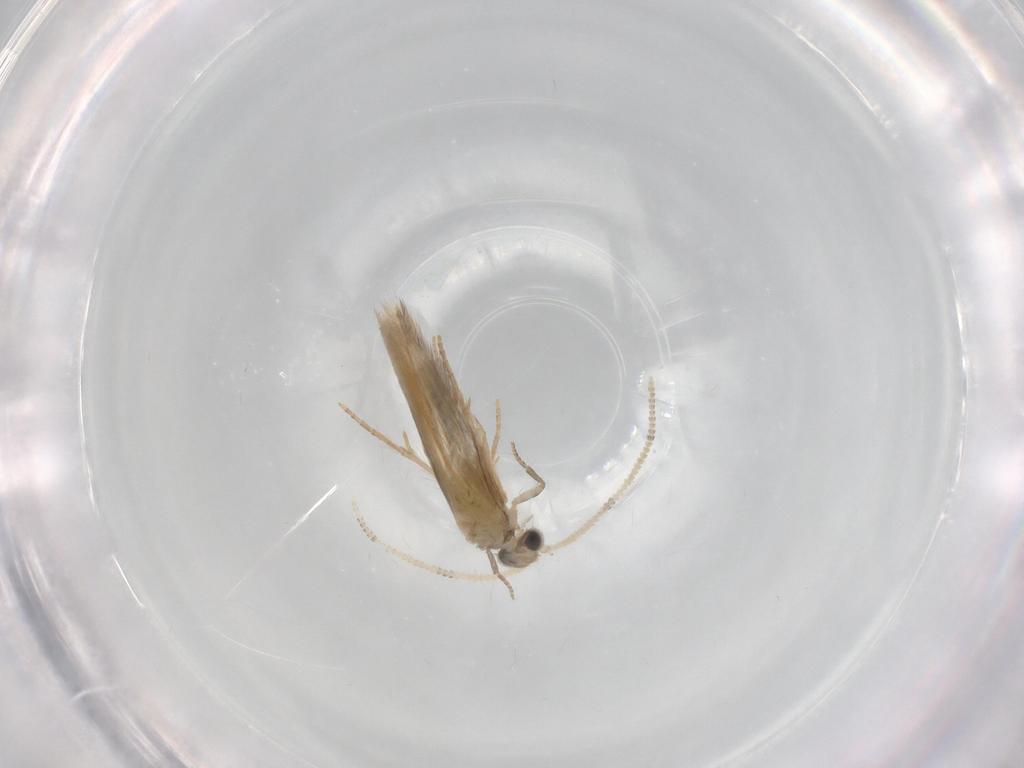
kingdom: Animalia
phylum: Arthropoda
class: Insecta
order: Trichoptera
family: Hydroptilidae
